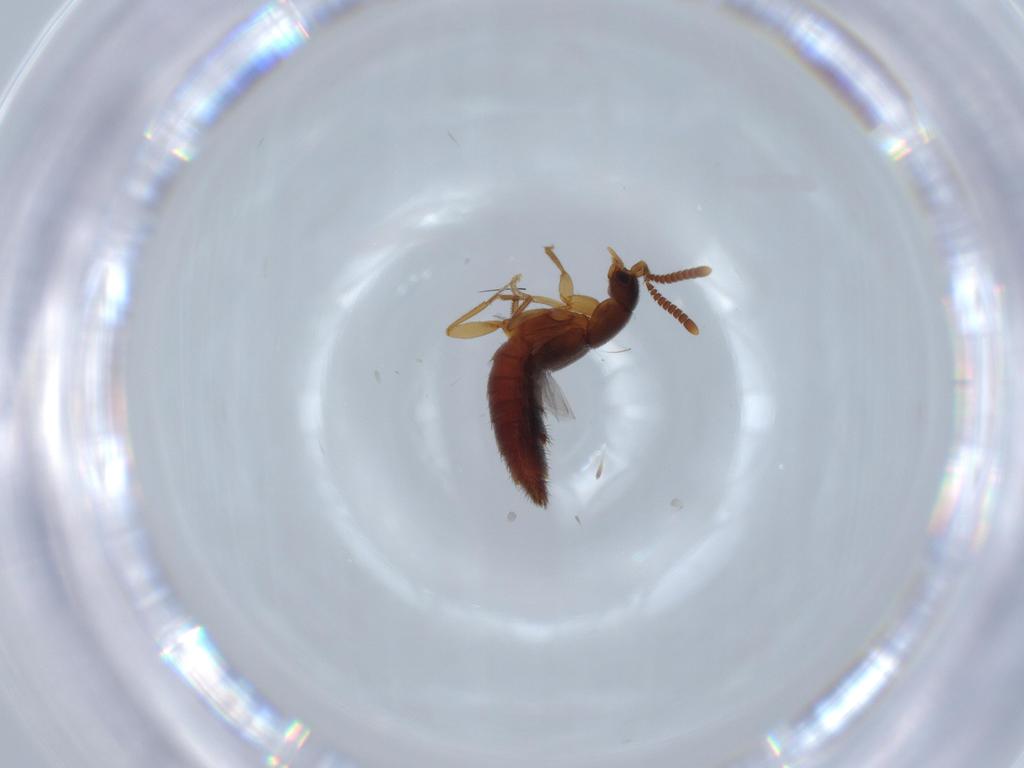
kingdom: Animalia
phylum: Arthropoda
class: Insecta
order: Coleoptera
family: Staphylinidae
